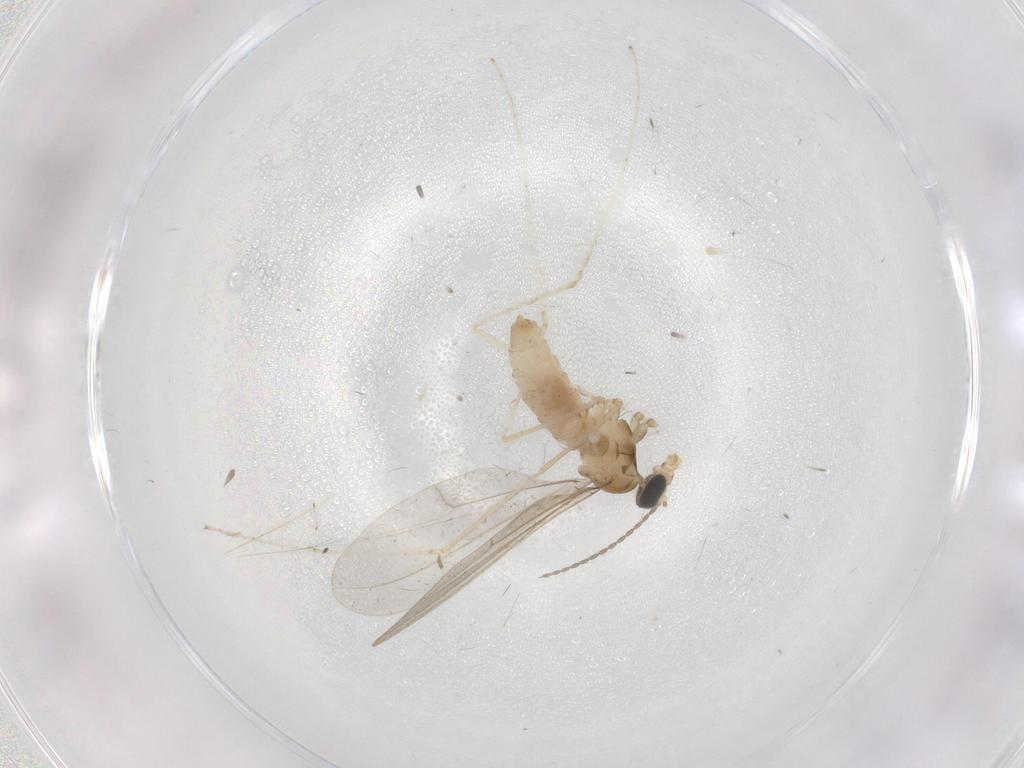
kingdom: Animalia
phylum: Arthropoda
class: Insecta
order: Diptera
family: Cecidomyiidae
